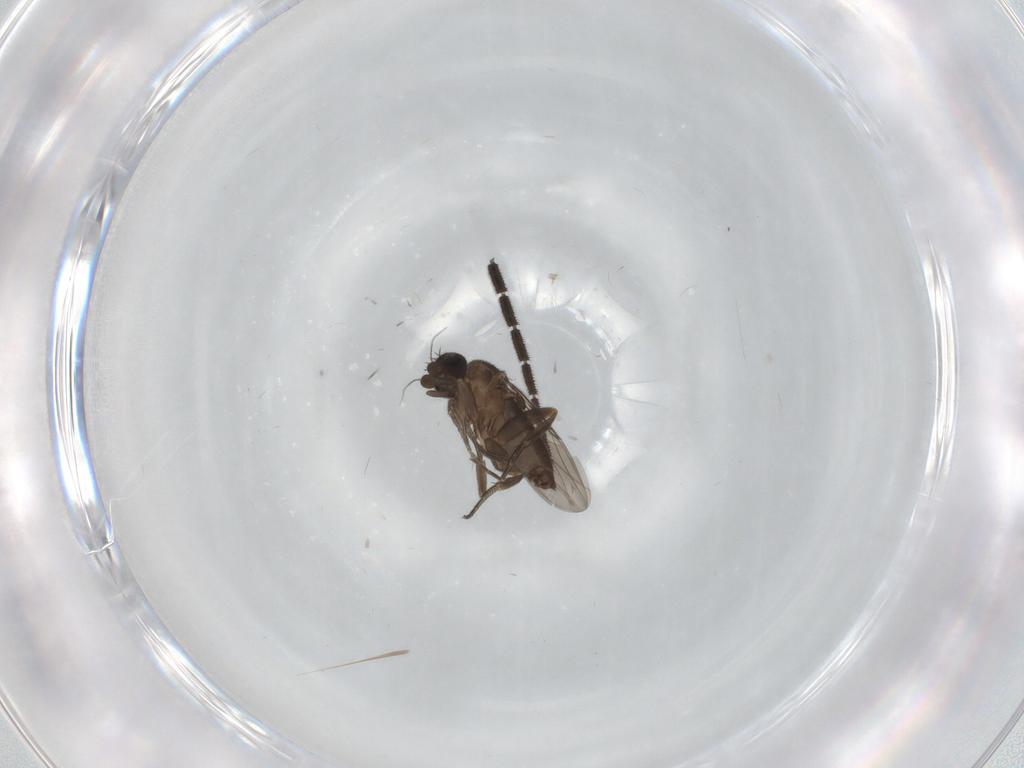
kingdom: Animalia
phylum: Arthropoda
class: Insecta
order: Diptera
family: Phoridae
